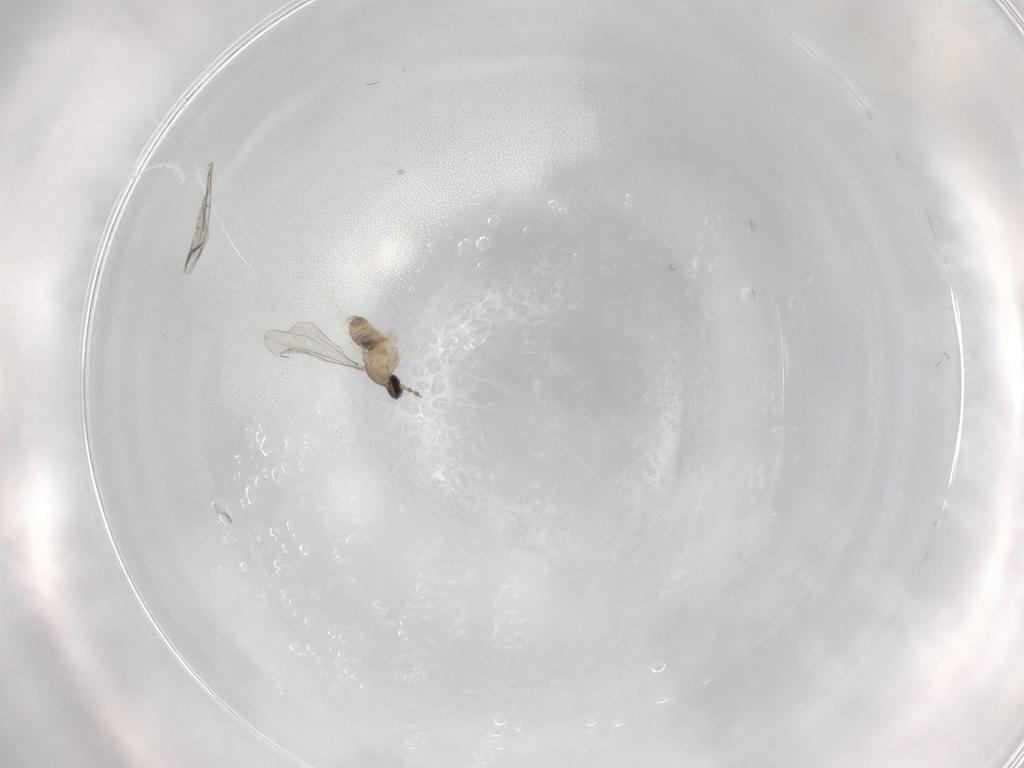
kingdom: Animalia
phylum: Arthropoda
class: Insecta
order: Diptera
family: Cecidomyiidae
